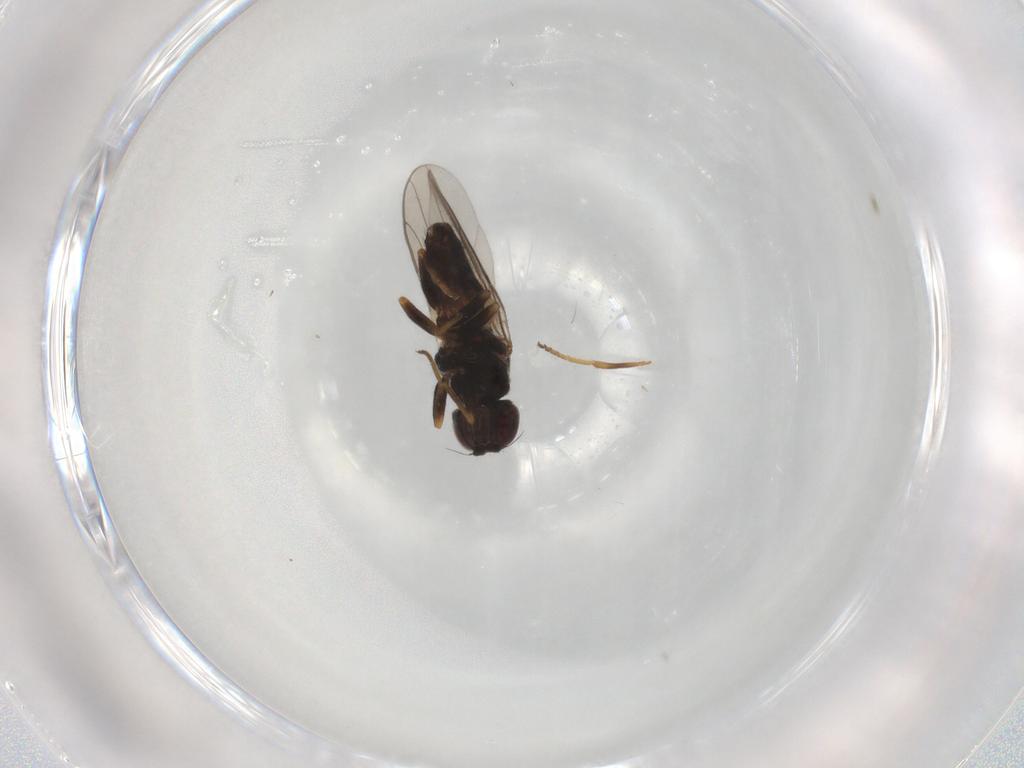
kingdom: Animalia
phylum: Arthropoda
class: Insecta
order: Diptera
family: Chloropidae
